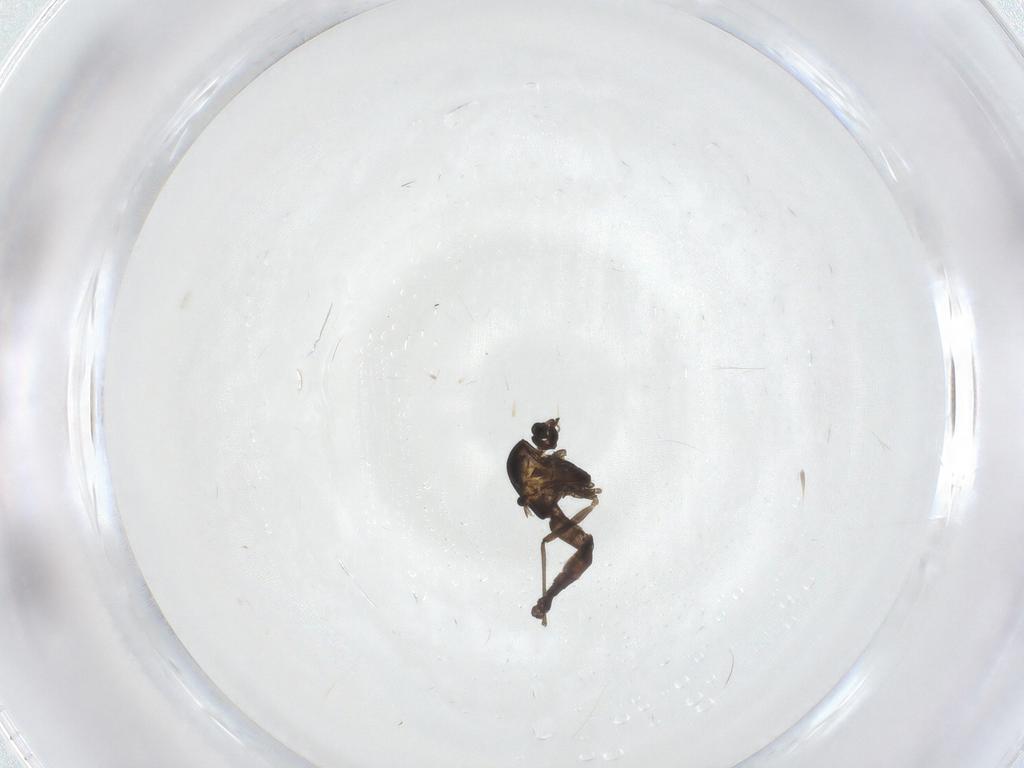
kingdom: Animalia
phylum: Arthropoda
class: Insecta
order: Diptera
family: Chironomidae
